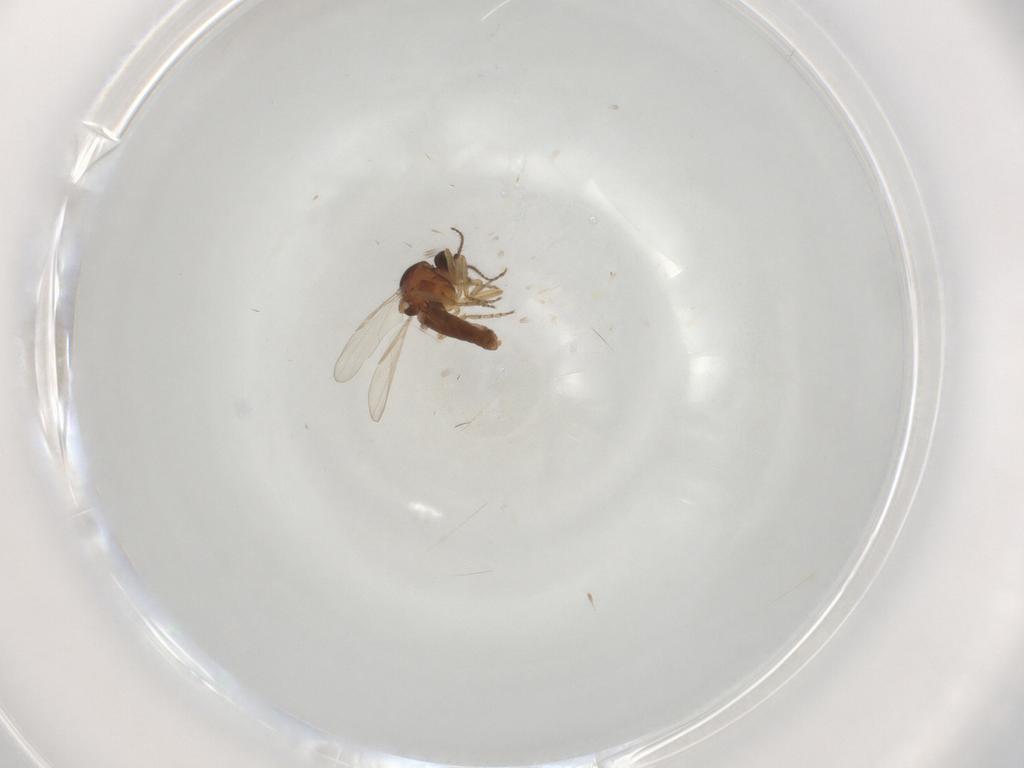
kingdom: Animalia
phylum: Arthropoda
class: Insecta
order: Diptera
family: Ceratopogonidae
